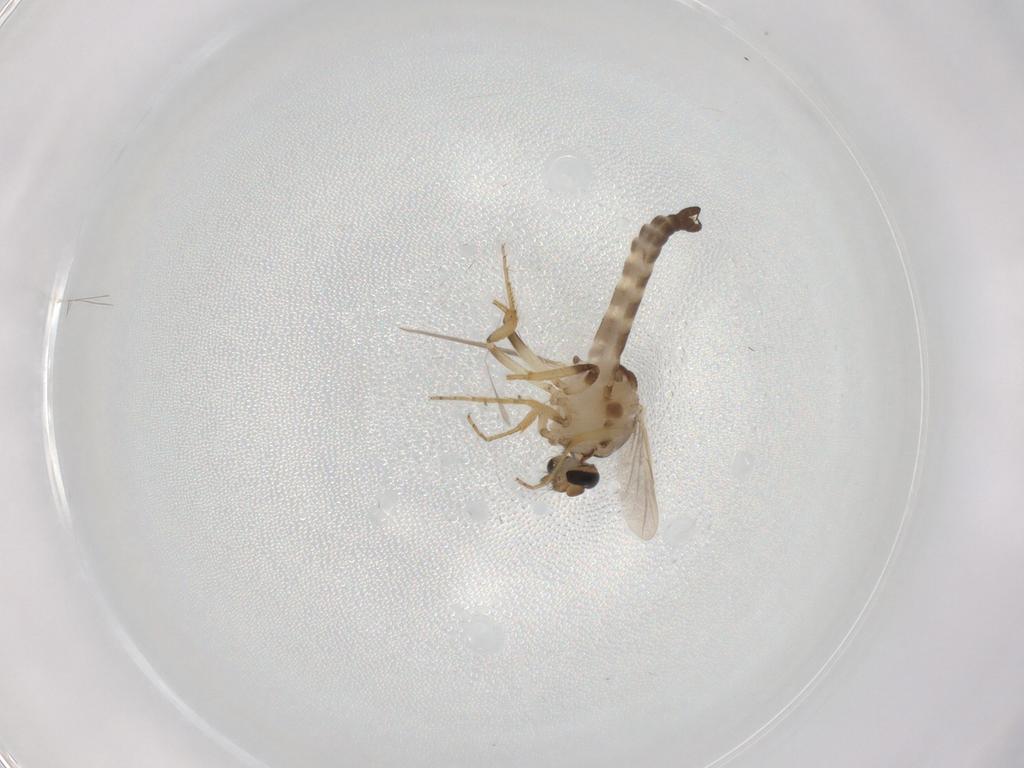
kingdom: Animalia
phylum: Arthropoda
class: Insecta
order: Diptera
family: Ceratopogonidae
